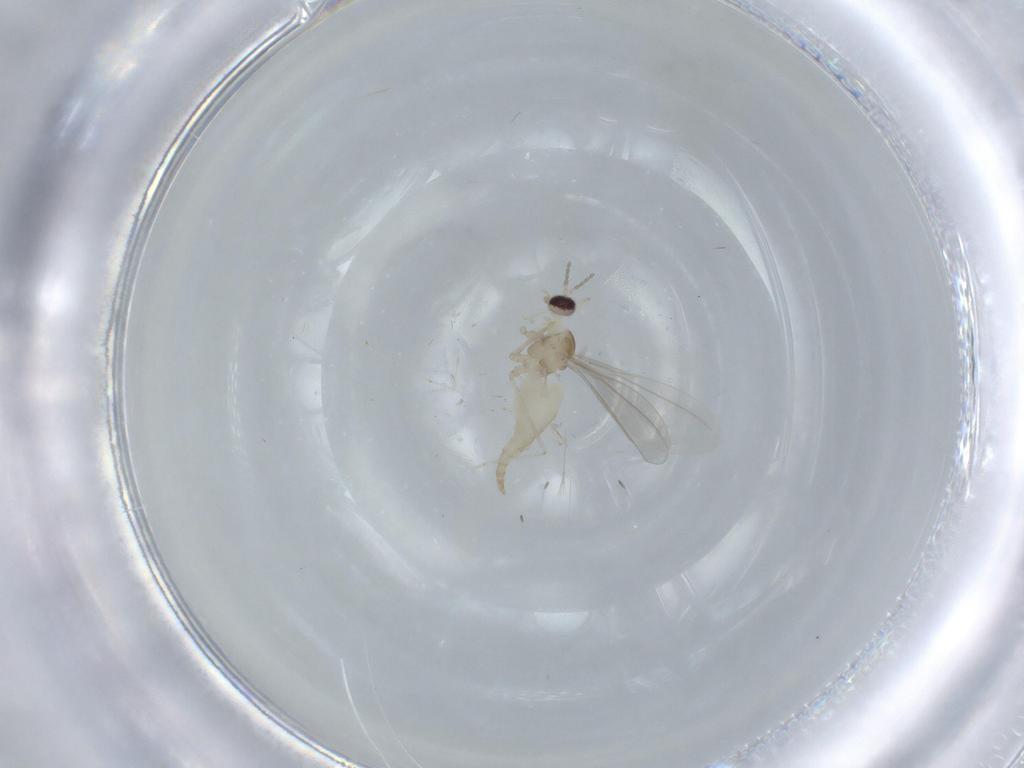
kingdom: Animalia
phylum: Arthropoda
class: Insecta
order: Diptera
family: Cecidomyiidae
